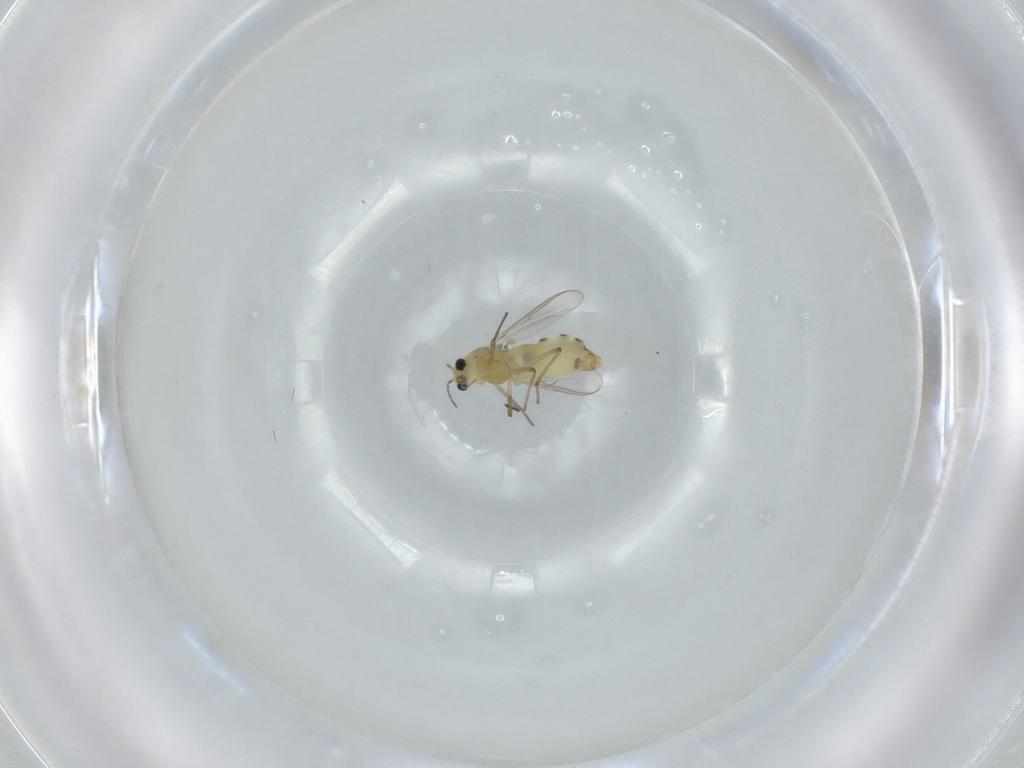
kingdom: Animalia
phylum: Arthropoda
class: Insecta
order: Diptera
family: Chironomidae
